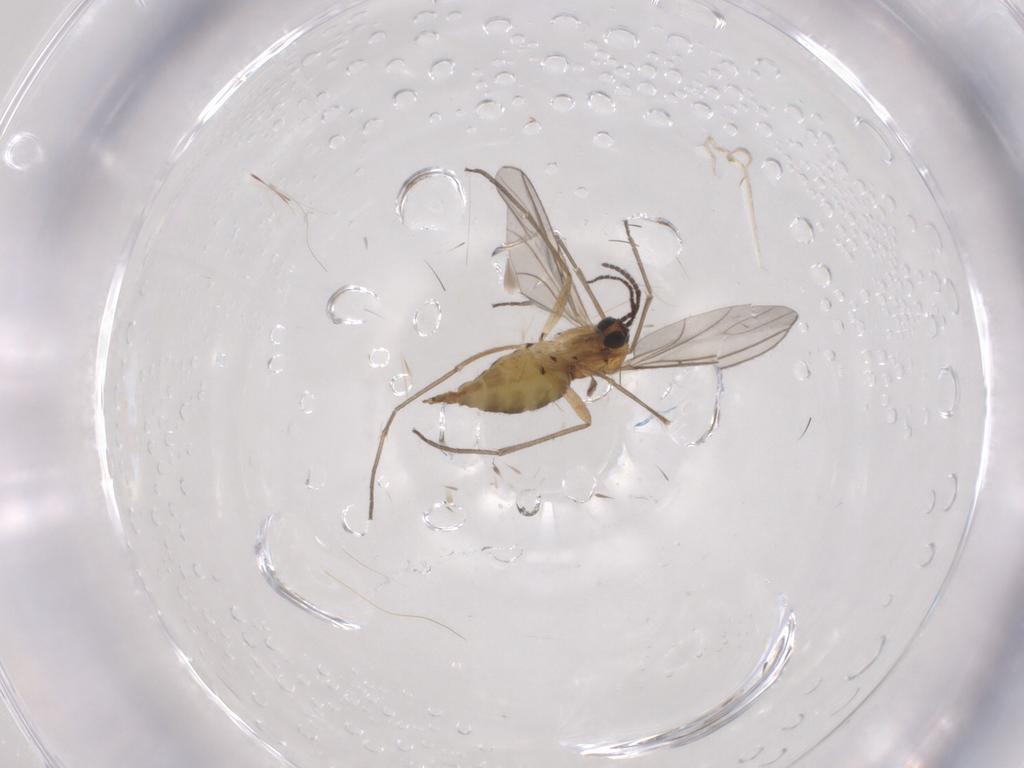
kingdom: Animalia
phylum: Arthropoda
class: Insecta
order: Diptera
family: Sciaridae
